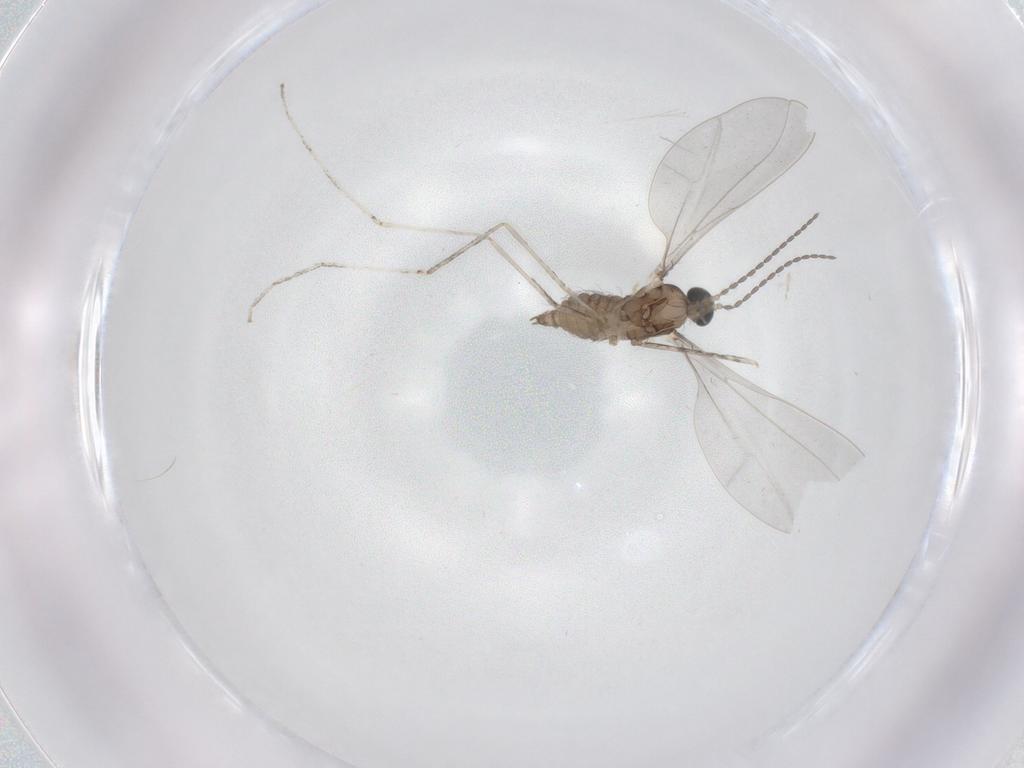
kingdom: Animalia
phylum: Arthropoda
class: Insecta
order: Diptera
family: Cecidomyiidae
